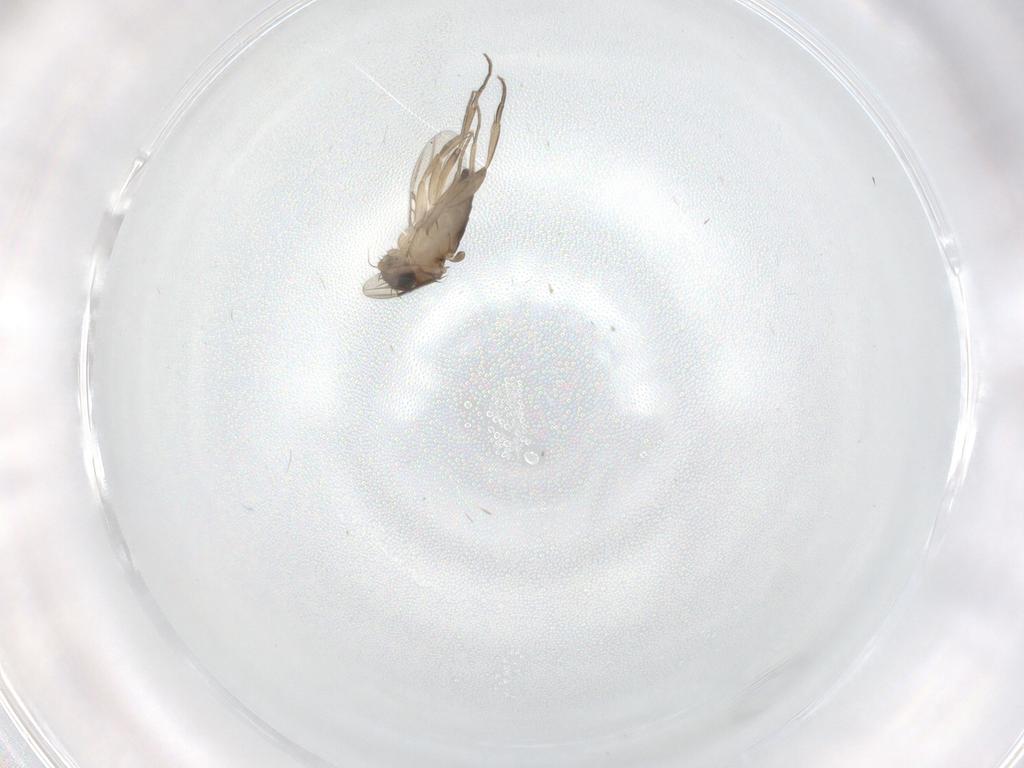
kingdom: Animalia
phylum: Arthropoda
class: Insecta
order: Diptera
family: Phoridae
